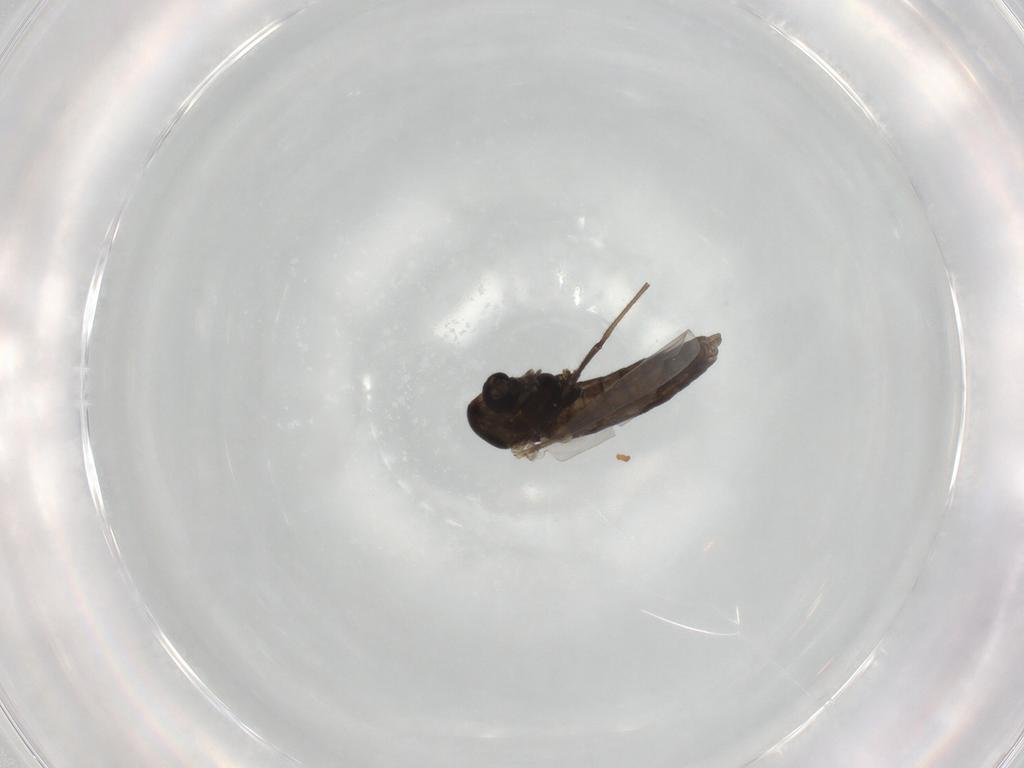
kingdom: Animalia
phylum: Arthropoda
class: Insecta
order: Diptera
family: Chironomidae
